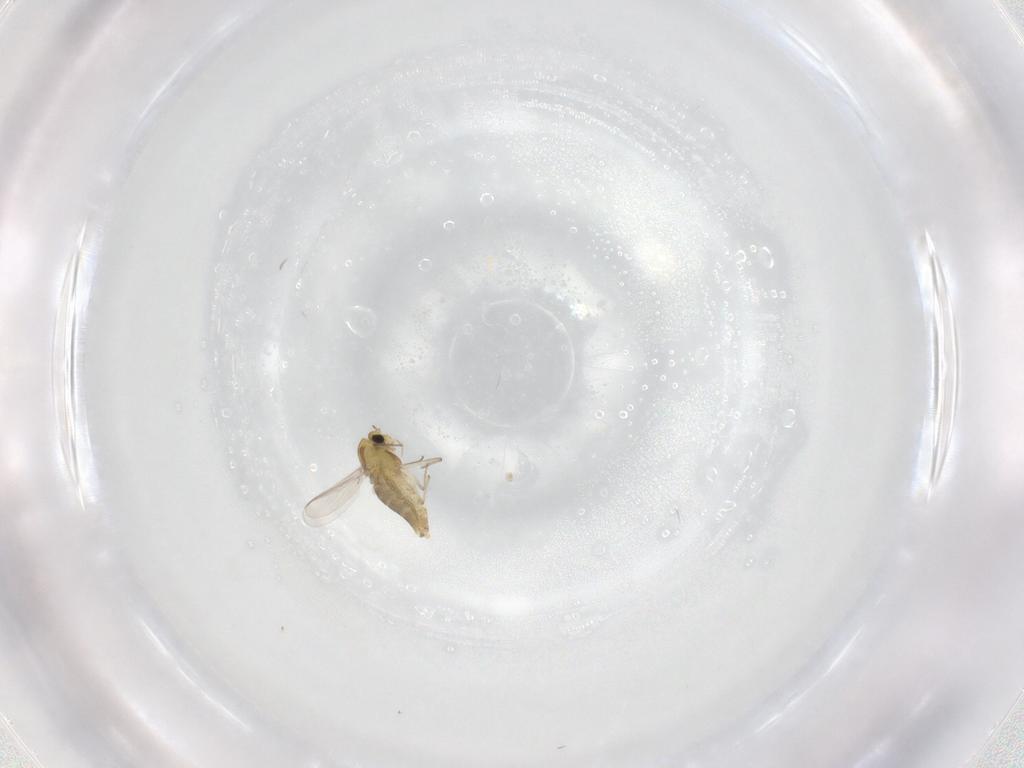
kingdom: Animalia
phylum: Arthropoda
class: Insecta
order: Diptera
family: Chironomidae
